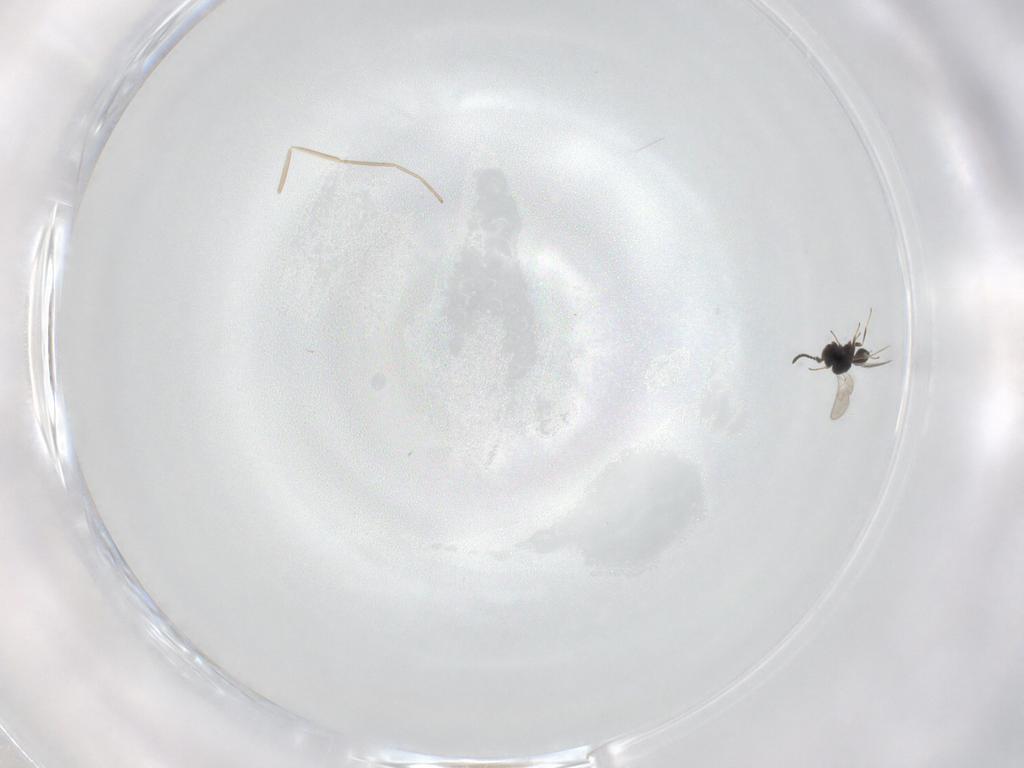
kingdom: Animalia
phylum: Arthropoda
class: Insecta
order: Hymenoptera
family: Scelionidae
